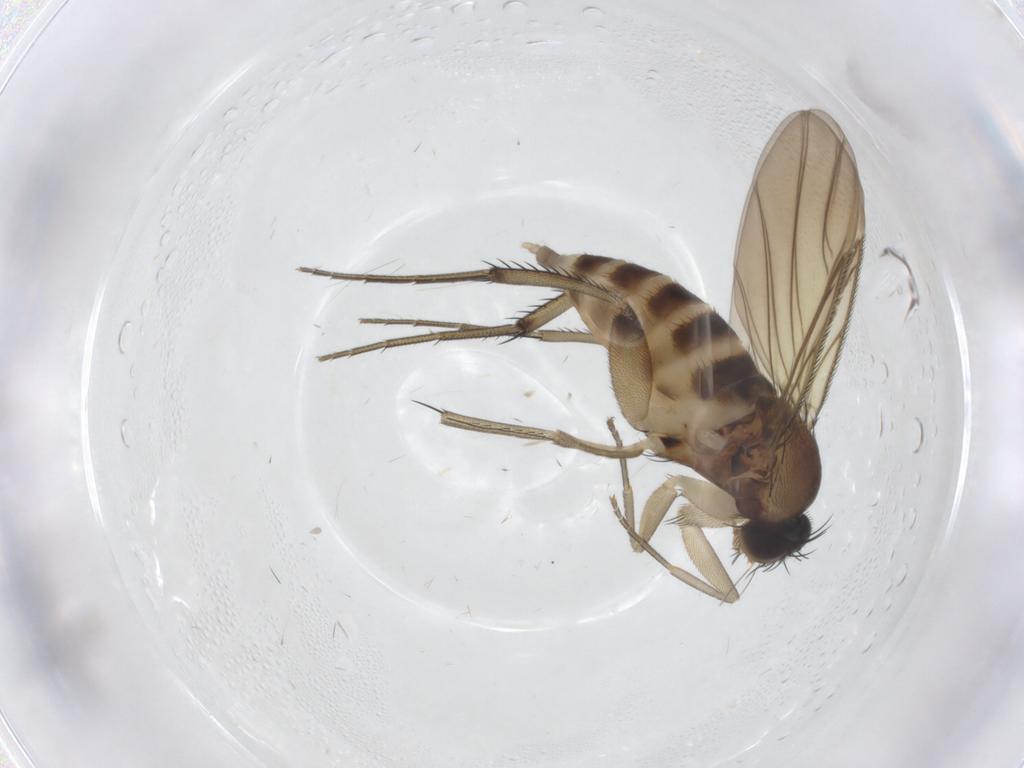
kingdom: Animalia
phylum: Arthropoda
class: Insecta
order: Diptera
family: Phoridae
